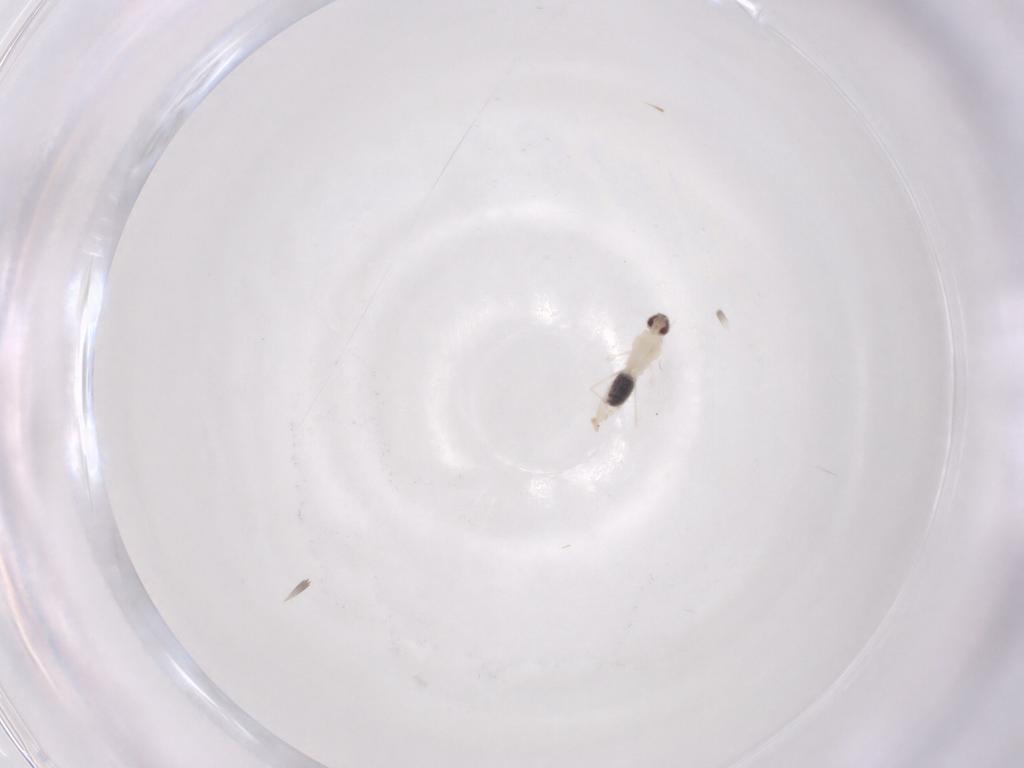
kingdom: Animalia
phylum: Arthropoda
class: Insecta
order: Diptera
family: Cecidomyiidae
